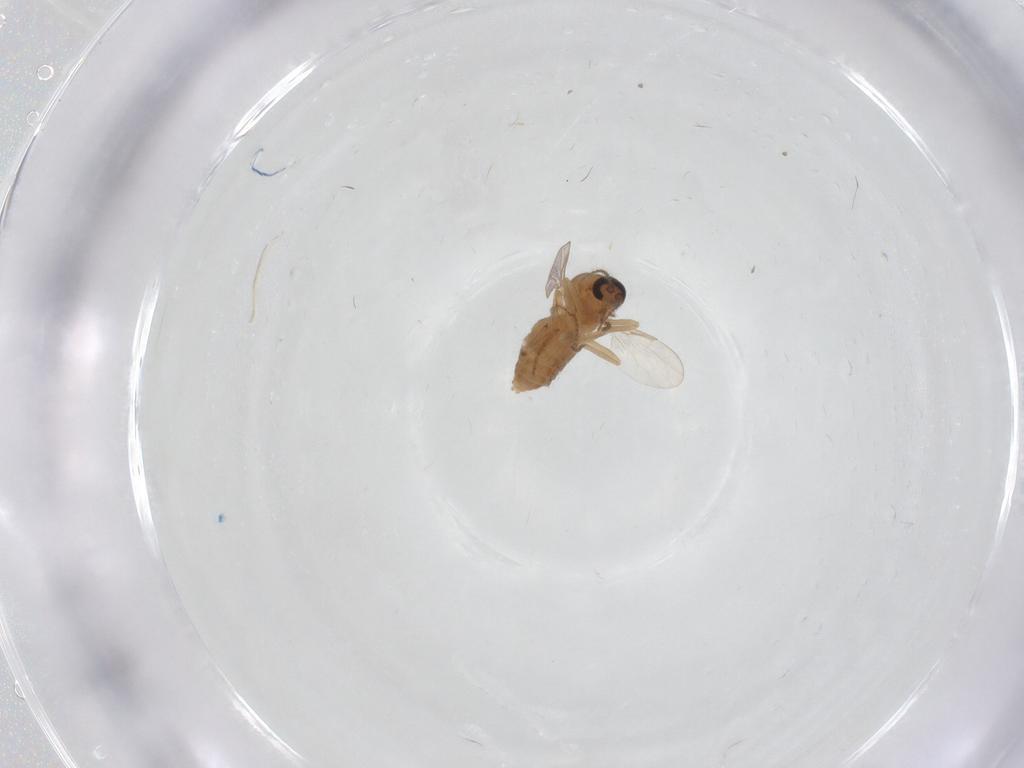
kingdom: Animalia
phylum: Arthropoda
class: Insecta
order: Diptera
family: Ceratopogonidae
